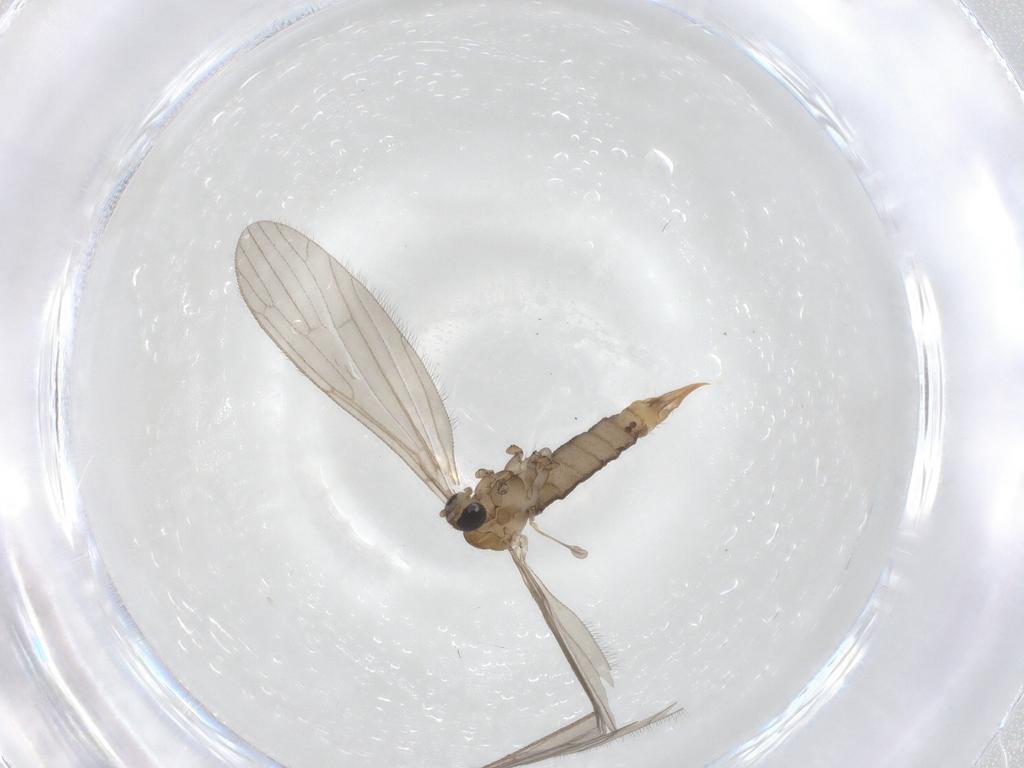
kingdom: Animalia
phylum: Arthropoda
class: Insecta
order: Diptera
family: Limoniidae
